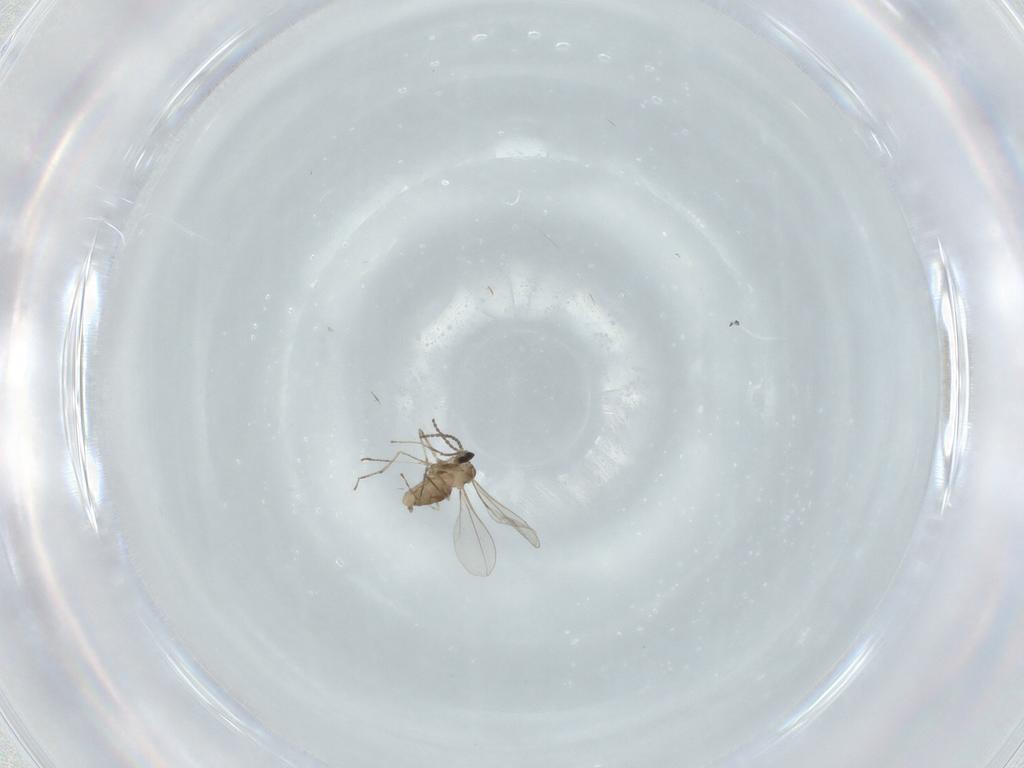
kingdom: Animalia
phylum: Arthropoda
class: Insecta
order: Diptera
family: Cecidomyiidae
